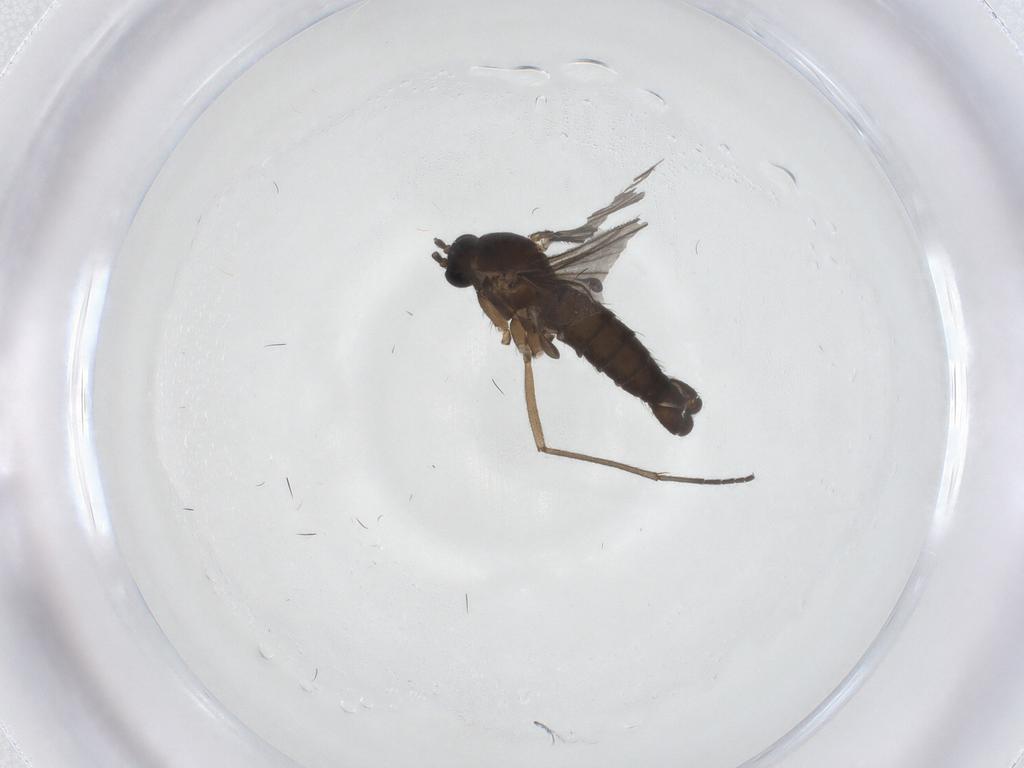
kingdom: Animalia
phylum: Arthropoda
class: Insecta
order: Diptera
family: Sciaridae
